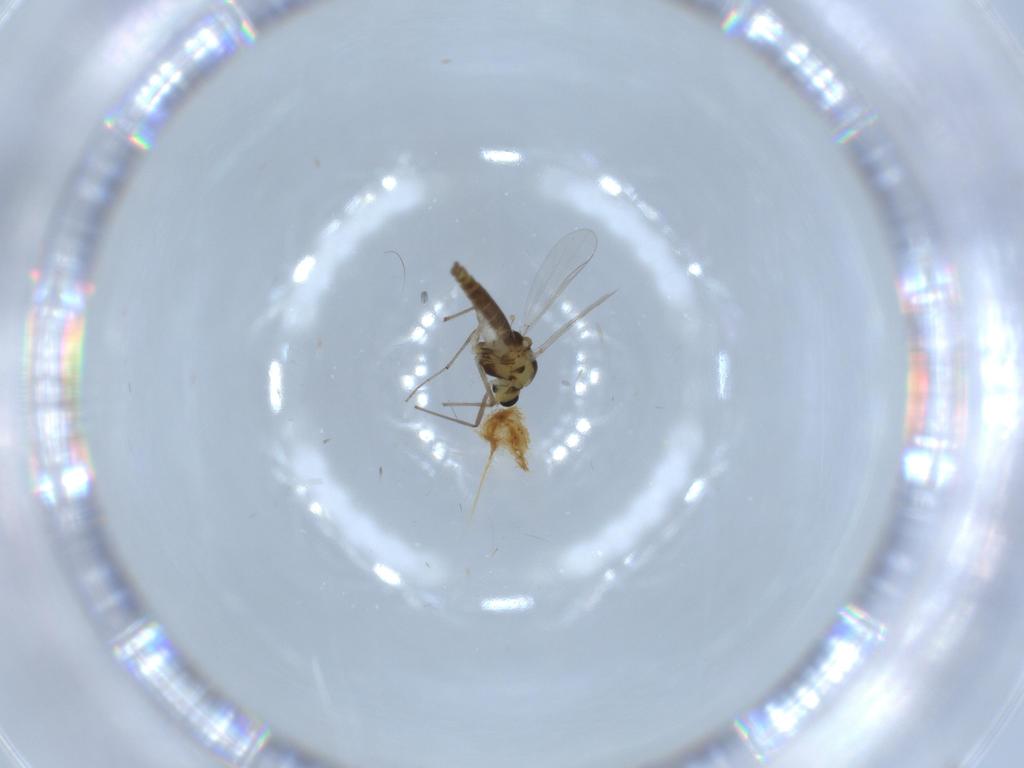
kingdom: Animalia
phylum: Arthropoda
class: Insecta
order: Diptera
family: Chironomidae
